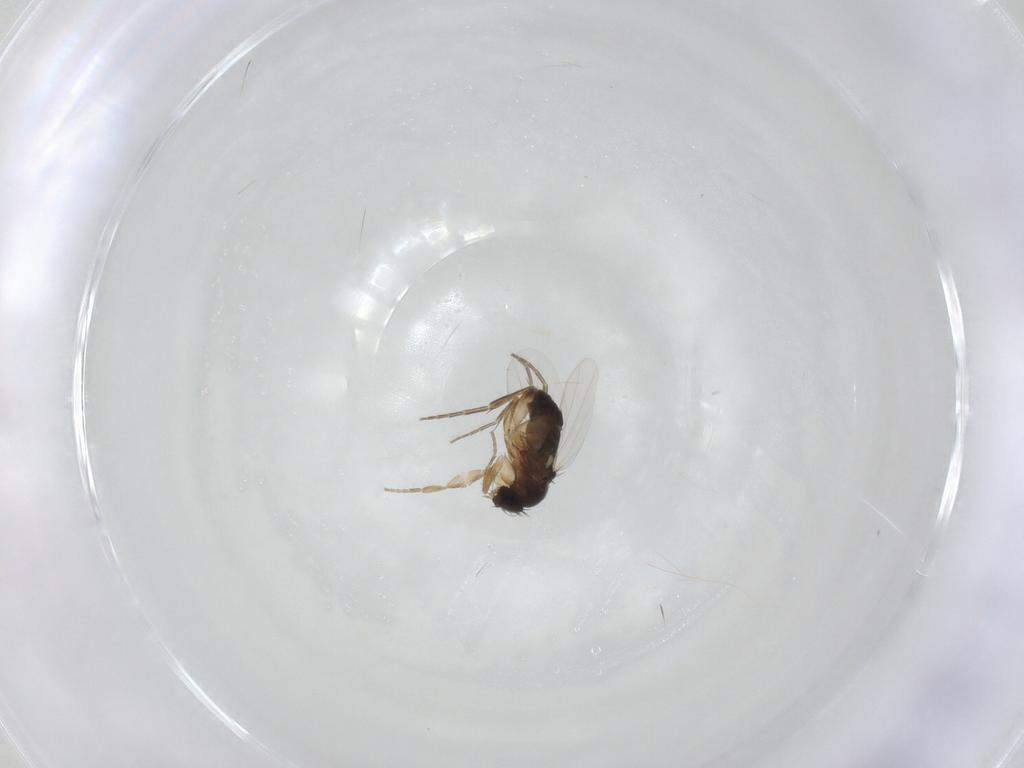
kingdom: Animalia
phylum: Arthropoda
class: Insecta
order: Diptera
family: Phoridae
